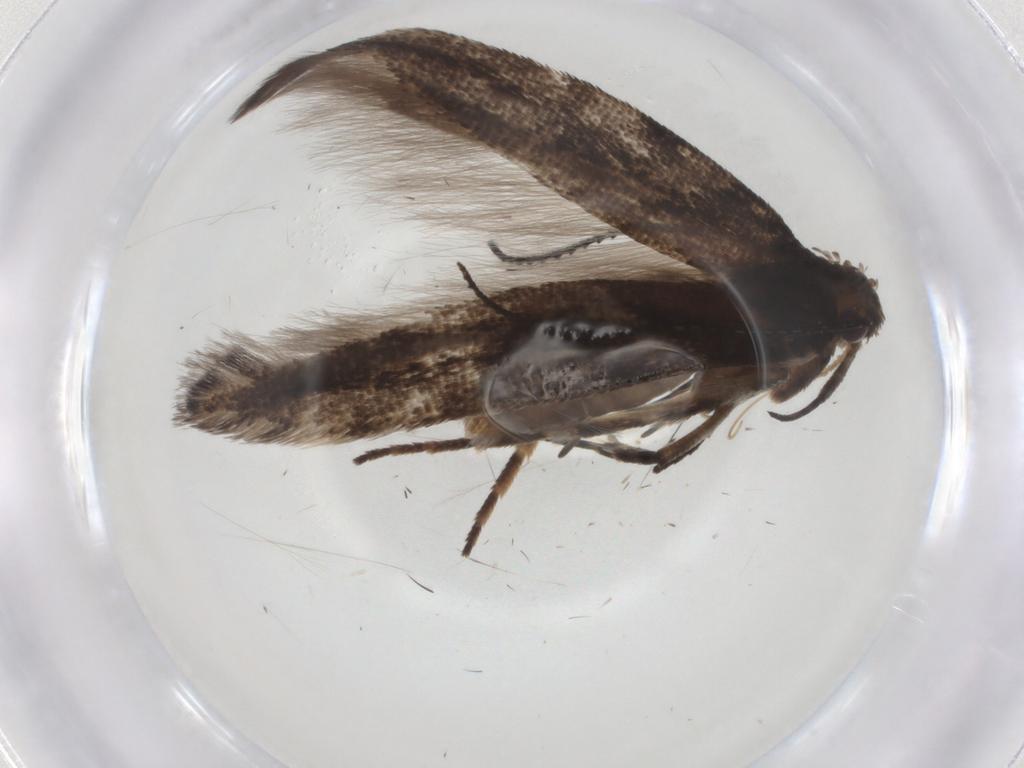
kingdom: Animalia
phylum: Arthropoda
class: Insecta
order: Lepidoptera
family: Gelechiidae
